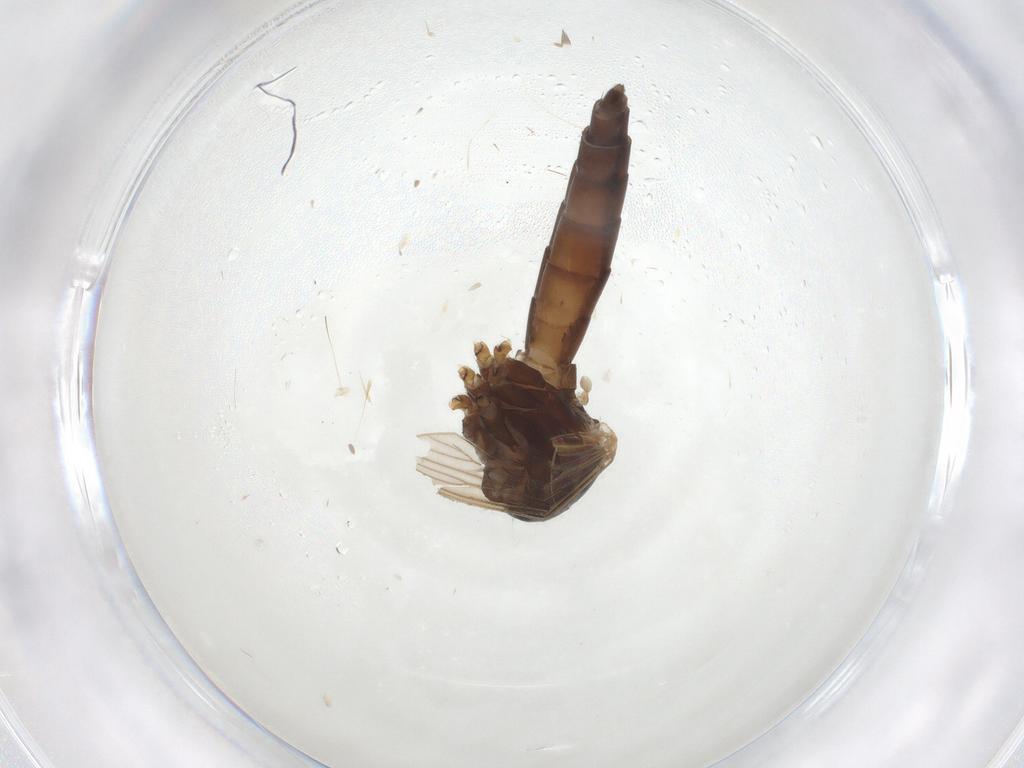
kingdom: Animalia
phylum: Arthropoda
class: Insecta
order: Diptera
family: Culicidae
